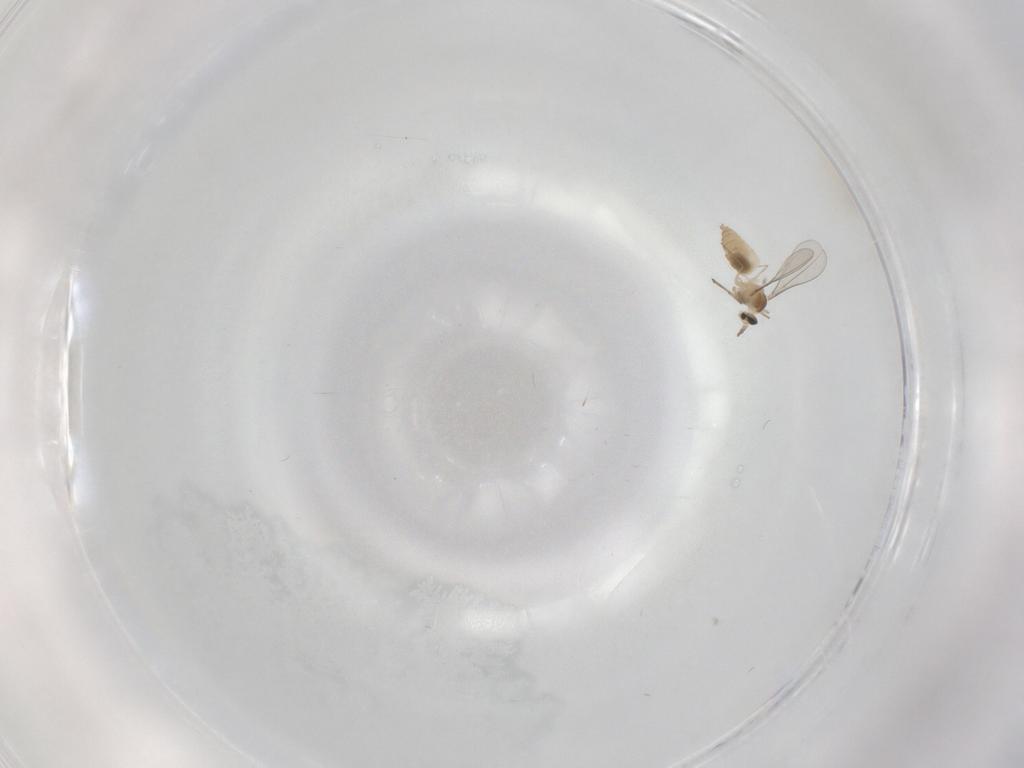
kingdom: Animalia
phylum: Arthropoda
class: Insecta
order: Diptera
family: Cecidomyiidae
